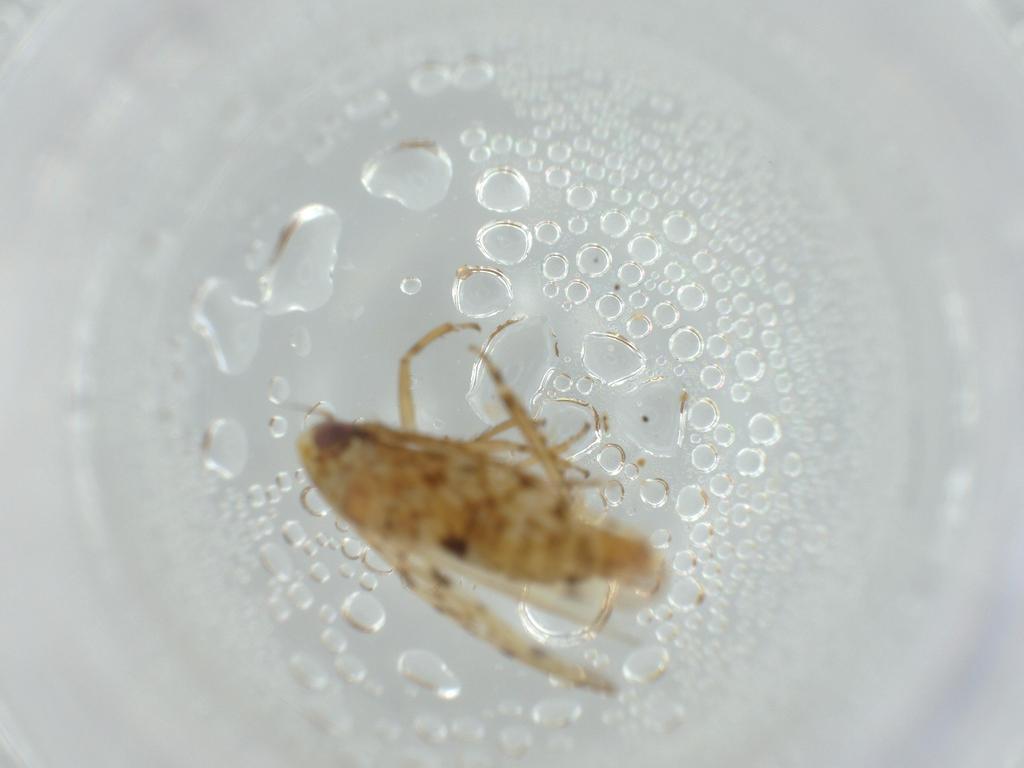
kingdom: Animalia
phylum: Arthropoda
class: Insecta
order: Hemiptera
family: Cicadellidae
